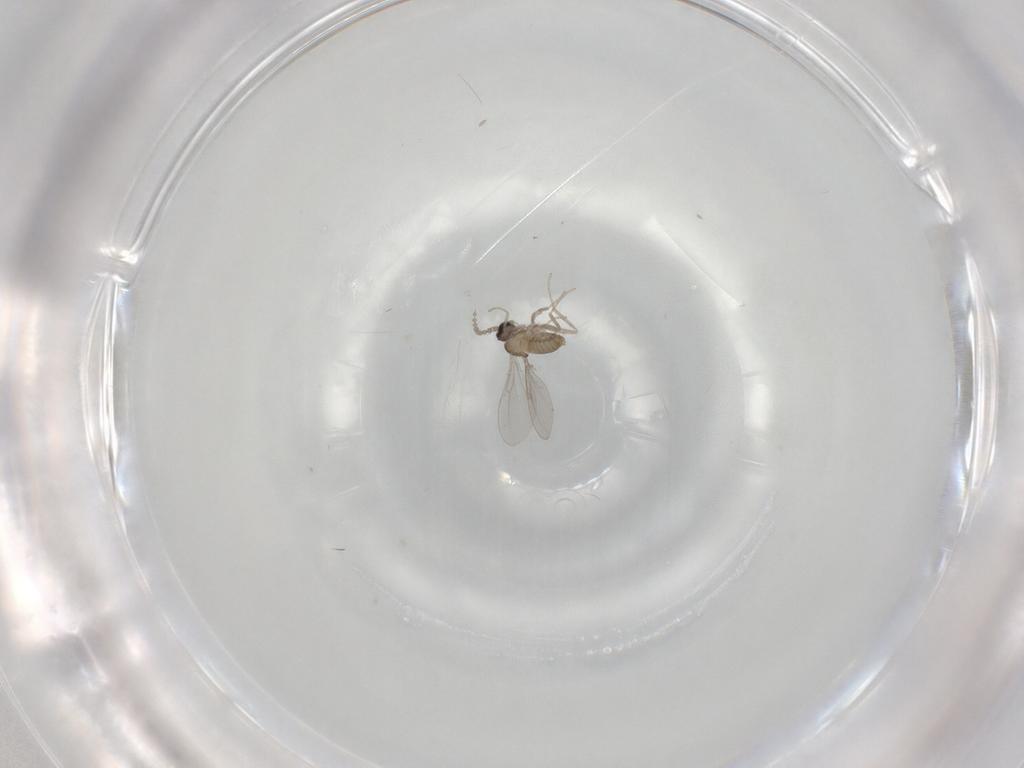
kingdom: Animalia
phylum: Arthropoda
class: Insecta
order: Diptera
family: Cecidomyiidae
